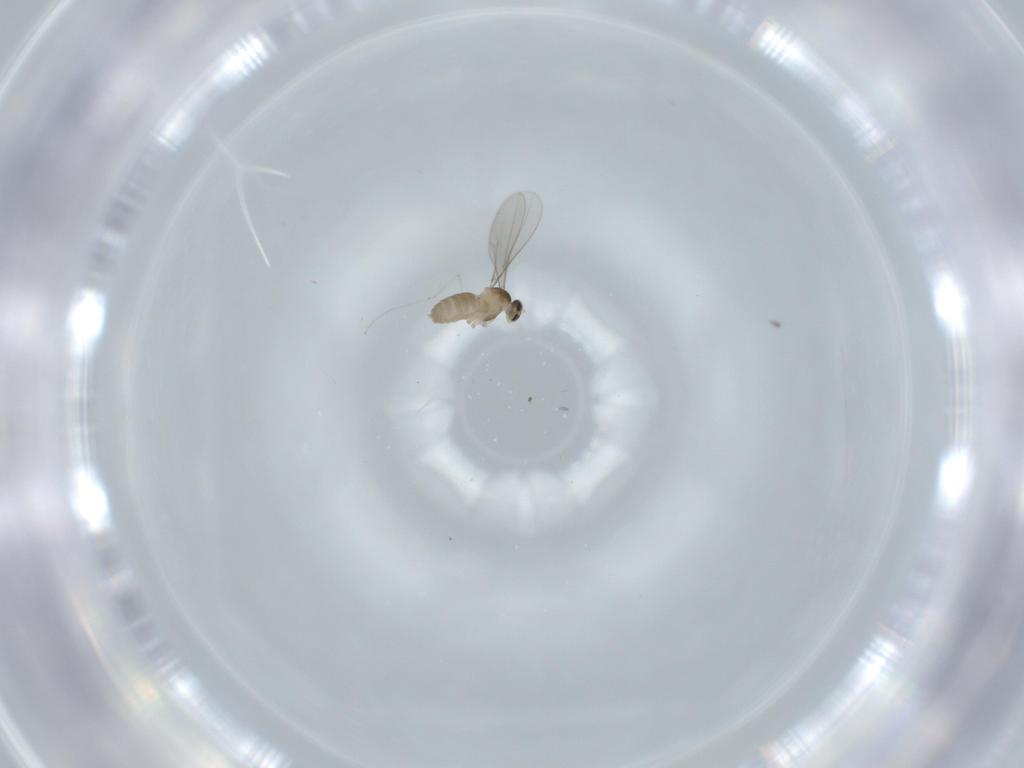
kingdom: Animalia
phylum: Arthropoda
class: Insecta
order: Diptera
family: Cecidomyiidae
